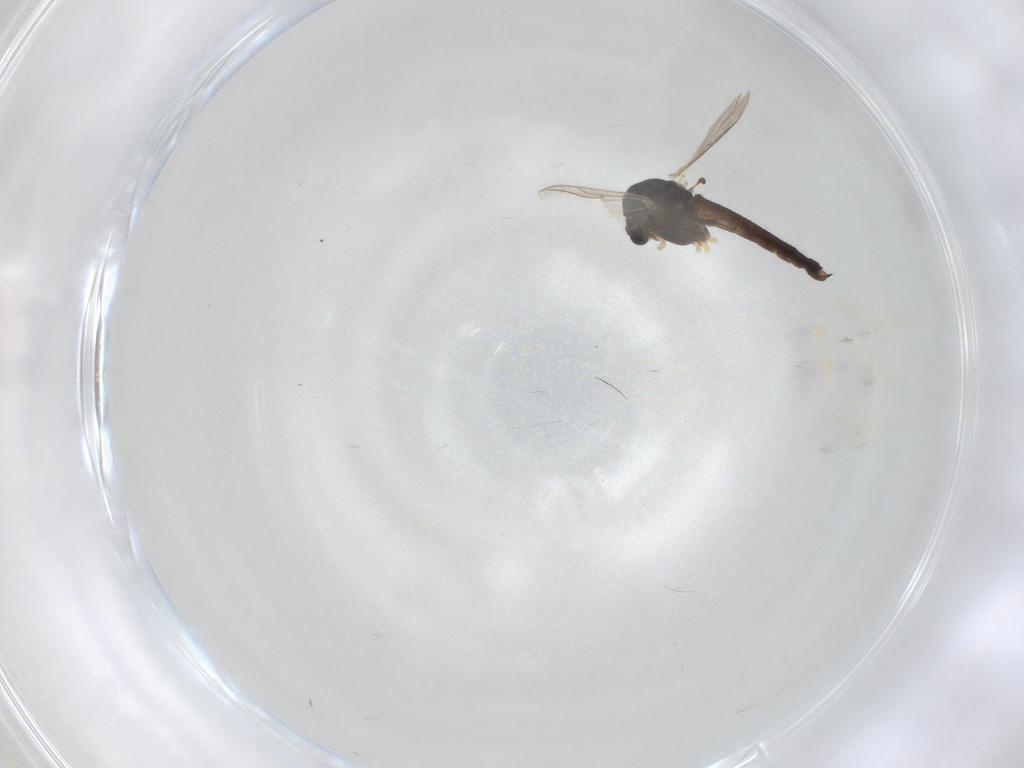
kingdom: Animalia
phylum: Arthropoda
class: Insecta
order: Diptera
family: Chironomidae
